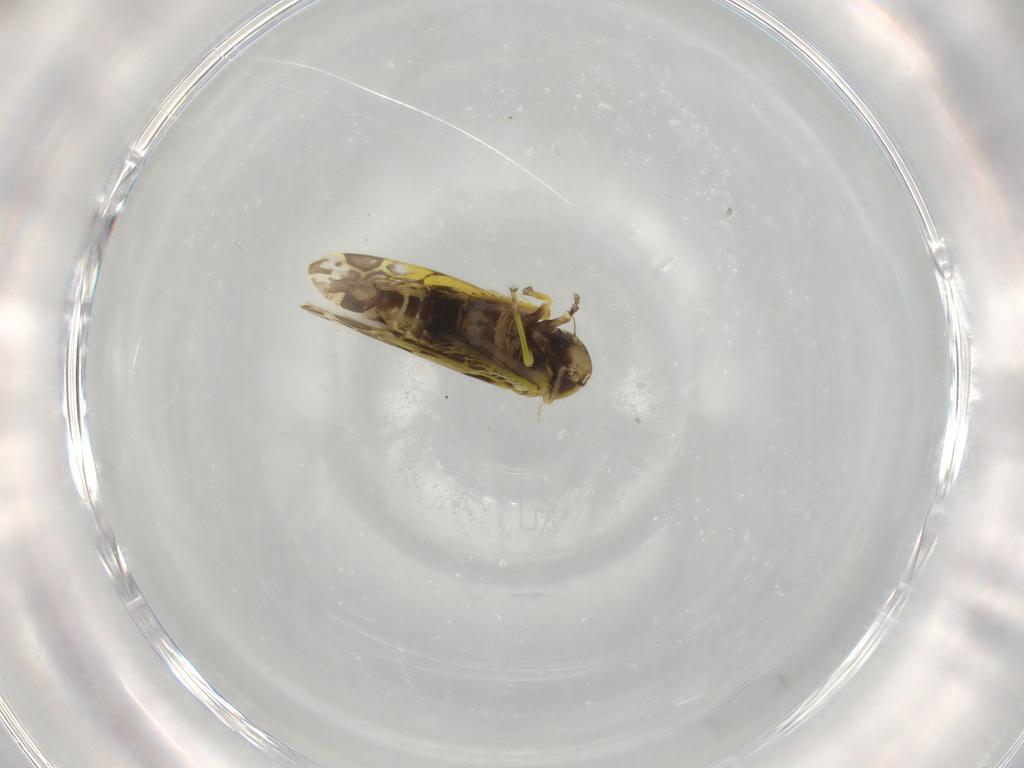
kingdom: Animalia
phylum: Arthropoda
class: Insecta
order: Hemiptera
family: Cicadellidae
